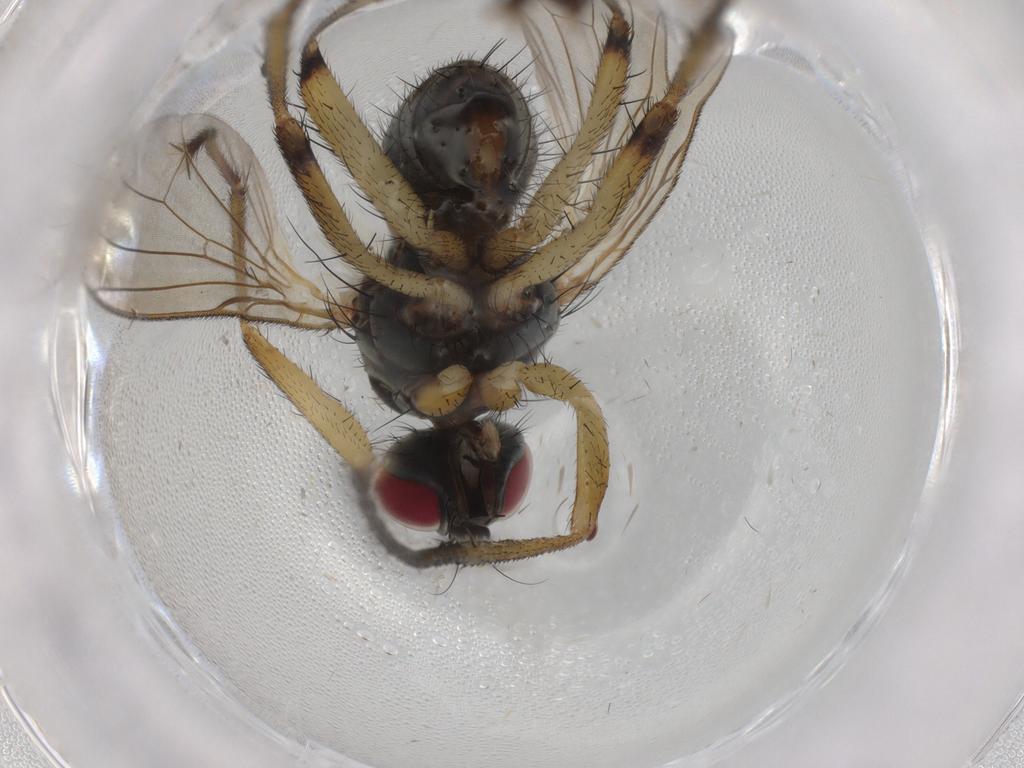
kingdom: Animalia
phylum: Arthropoda
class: Insecta
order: Diptera
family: Muscidae
